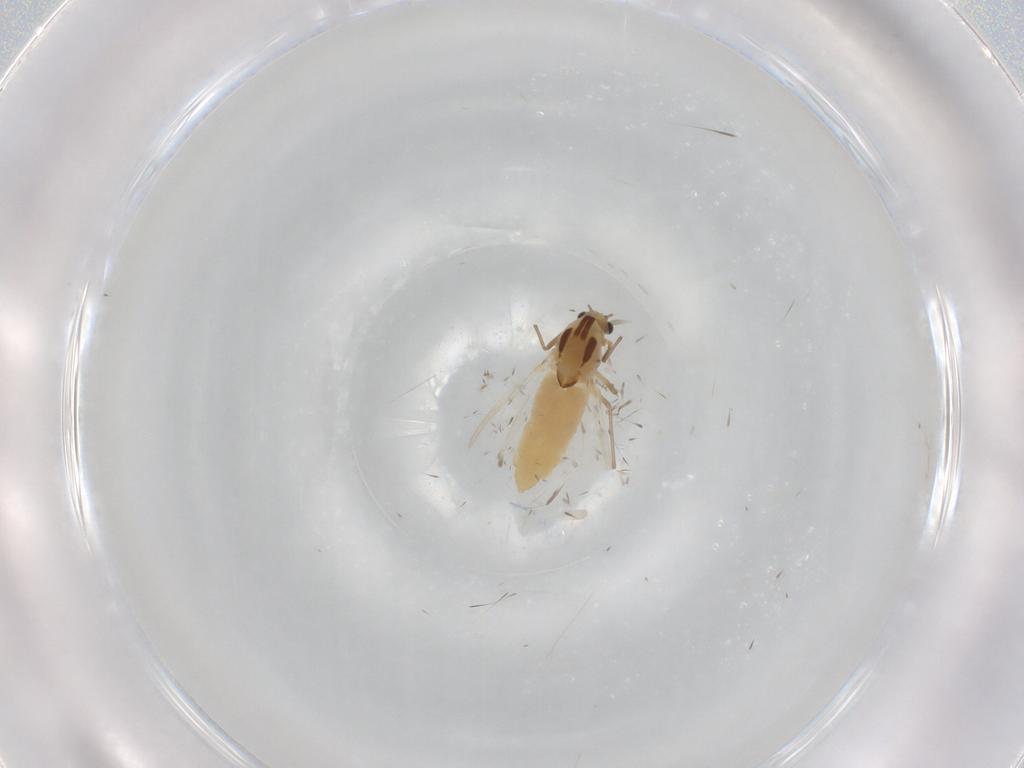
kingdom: Animalia
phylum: Arthropoda
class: Insecta
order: Diptera
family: Chironomidae
